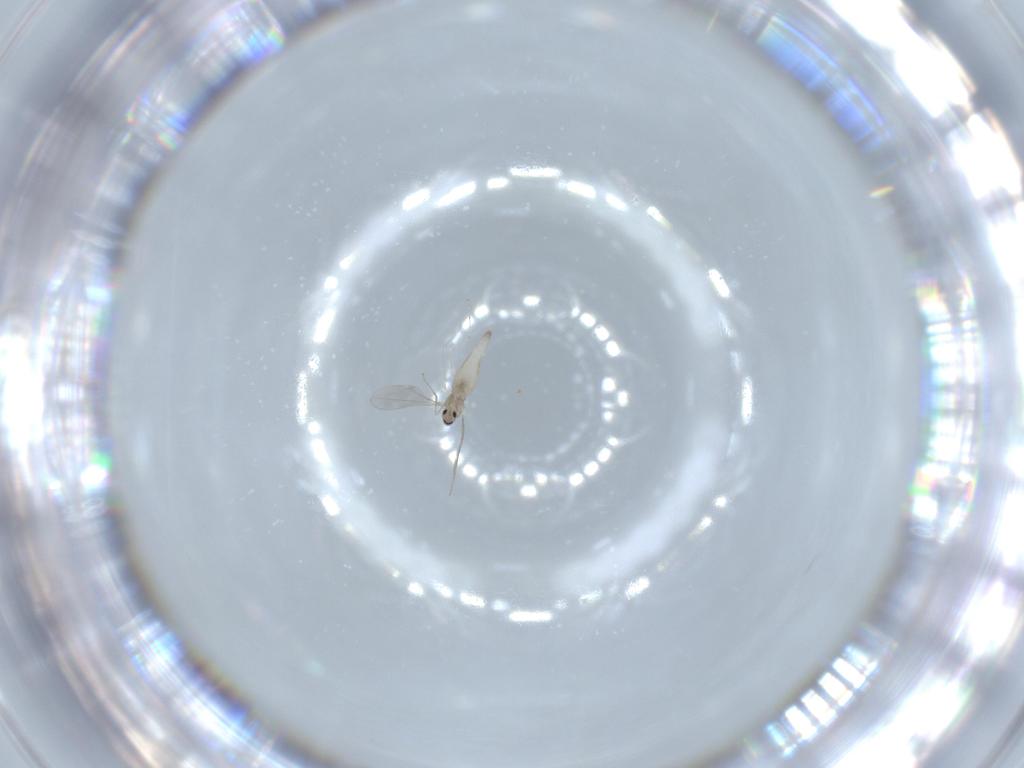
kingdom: Animalia
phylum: Arthropoda
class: Insecta
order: Diptera
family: Cecidomyiidae
